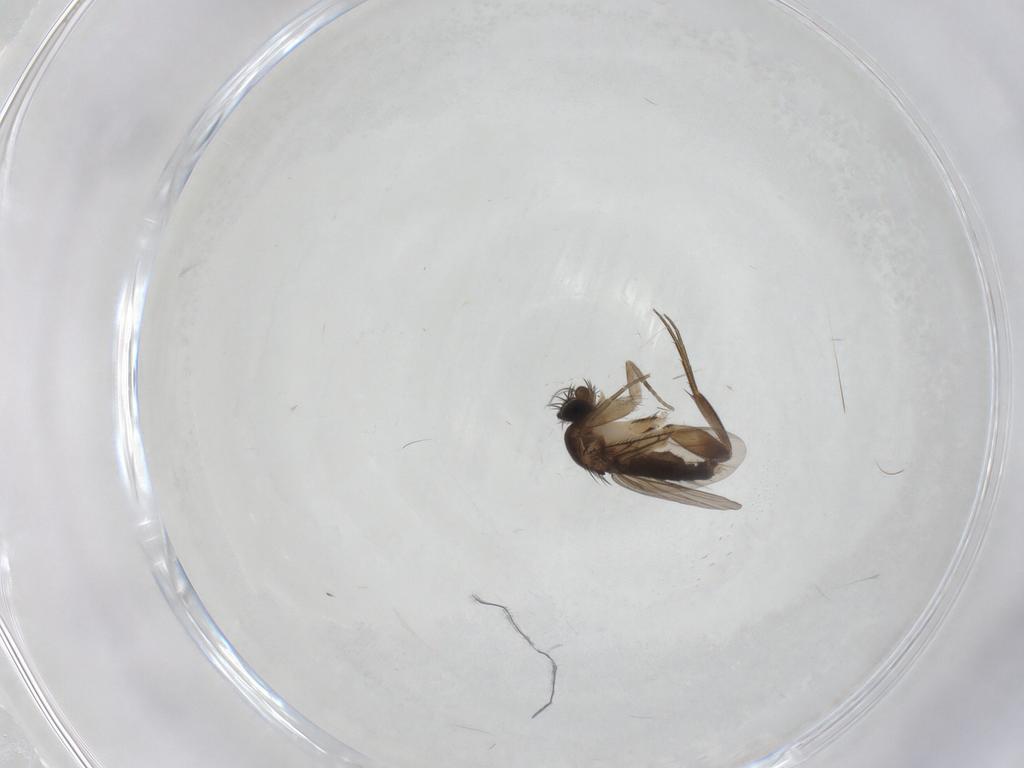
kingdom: Animalia
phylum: Arthropoda
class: Insecta
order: Diptera
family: Phoridae
